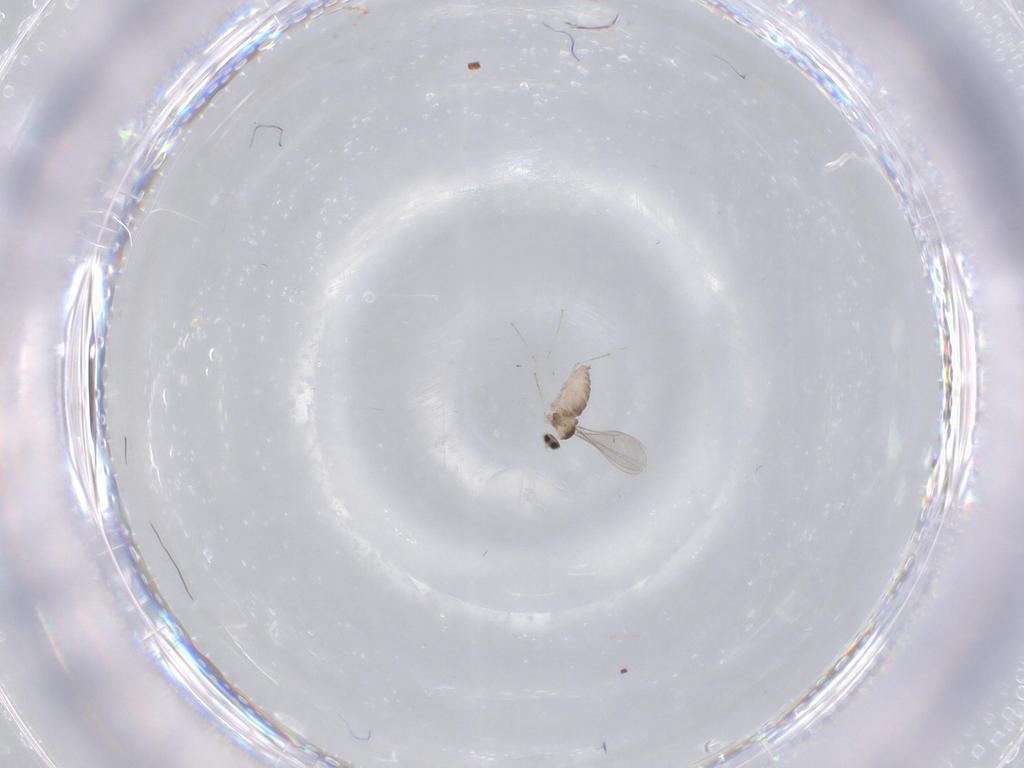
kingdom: Animalia
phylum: Arthropoda
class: Insecta
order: Diptera
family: Cecidomyiidae
